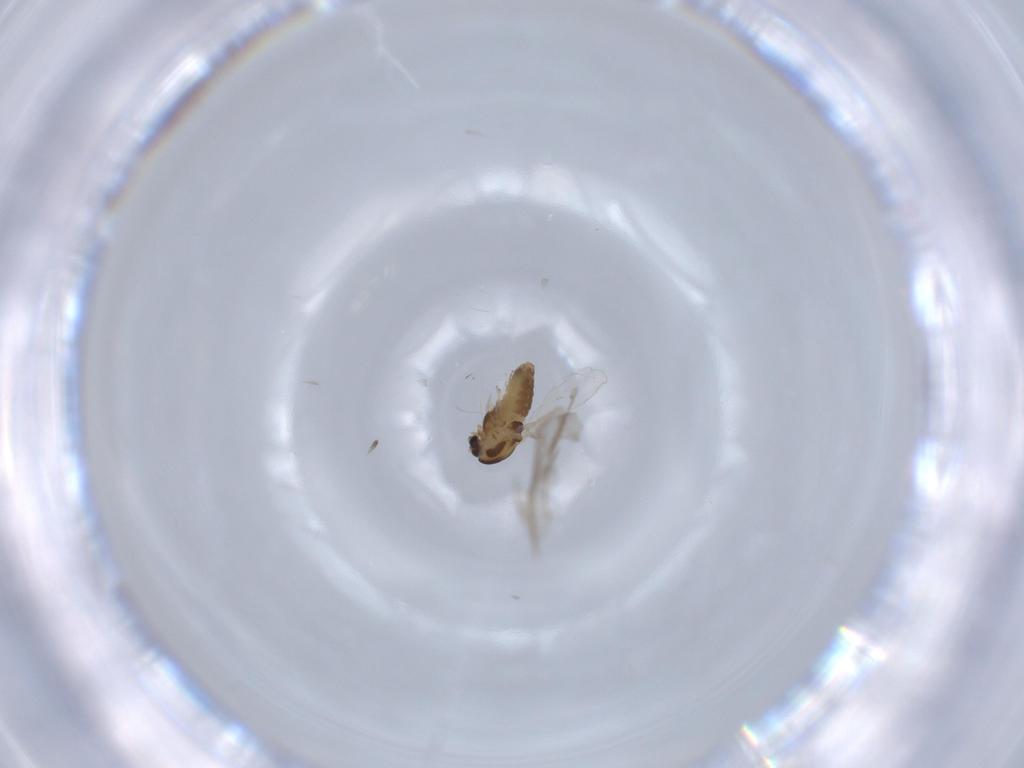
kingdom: Animalia
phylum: Arthropoda
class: Insecta
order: Diptera
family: Chironomidae
